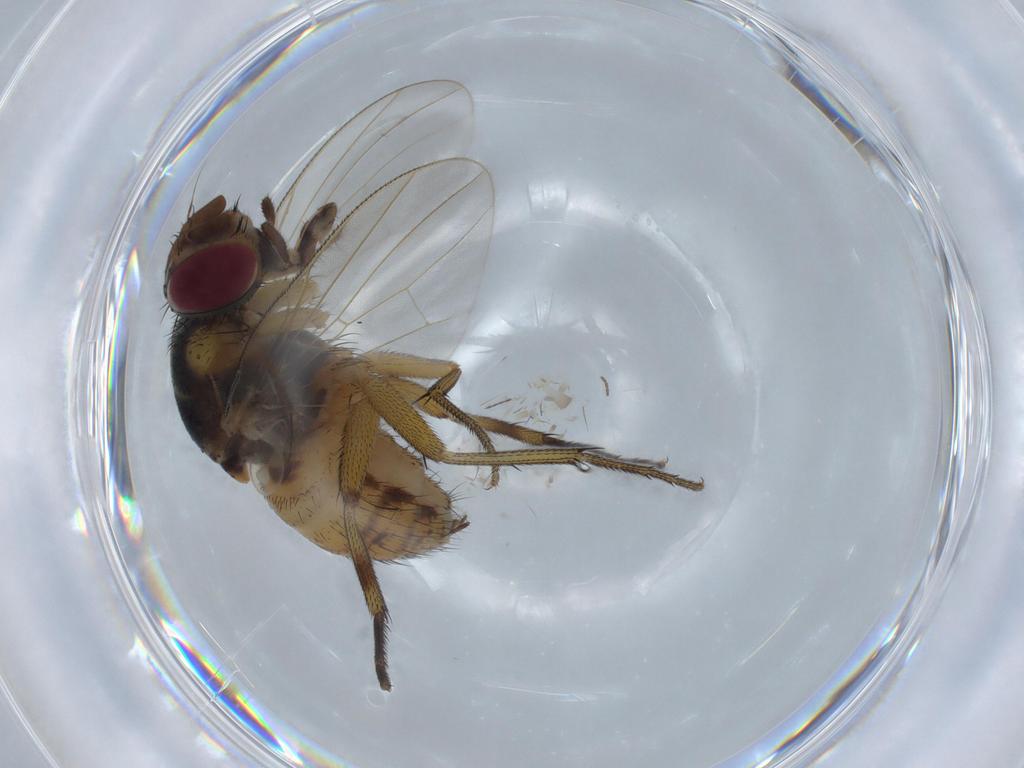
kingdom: Animalia
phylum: Arthropoda
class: Insecta
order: Diptera
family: Muscidae
